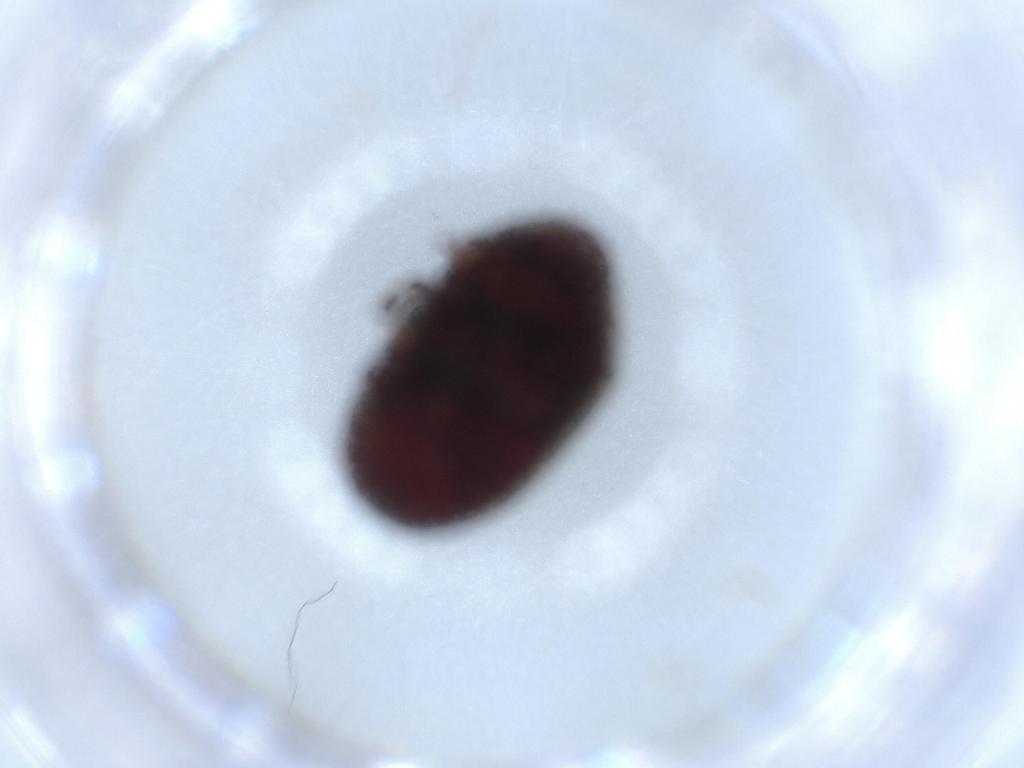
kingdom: Animalia
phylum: Arthropoda
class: Insecta
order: Coleoptera
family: Ptinidae
